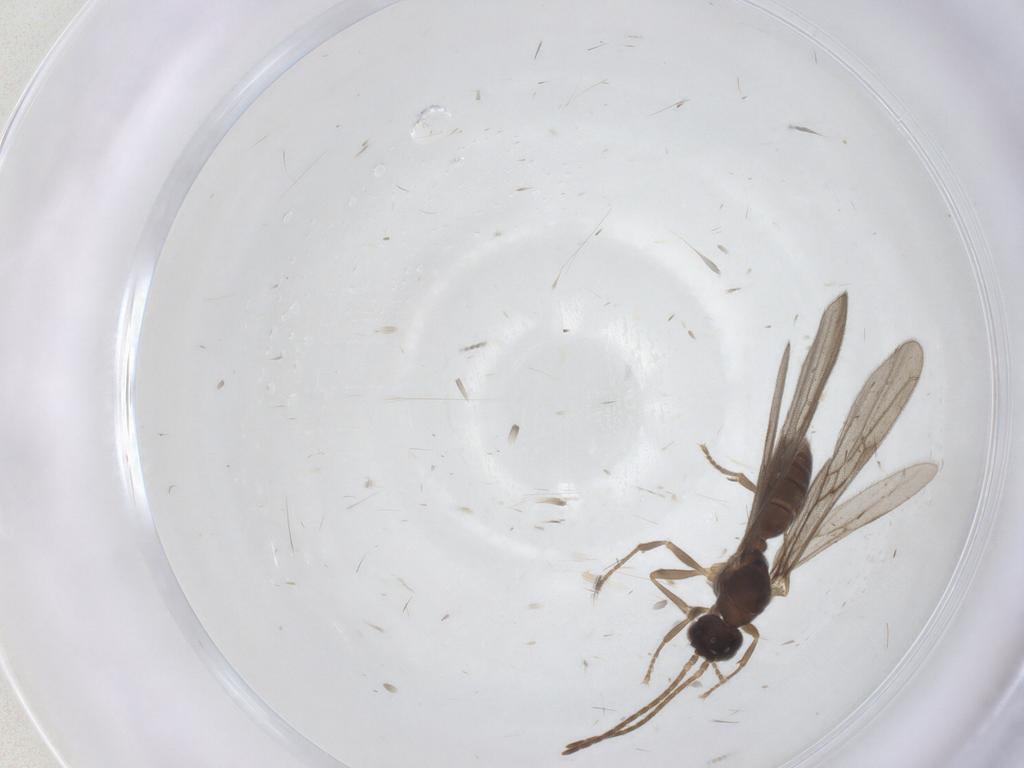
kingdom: Animalia
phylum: Arthropoda
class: Insecta
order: Hymenoptera
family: Formicidae
